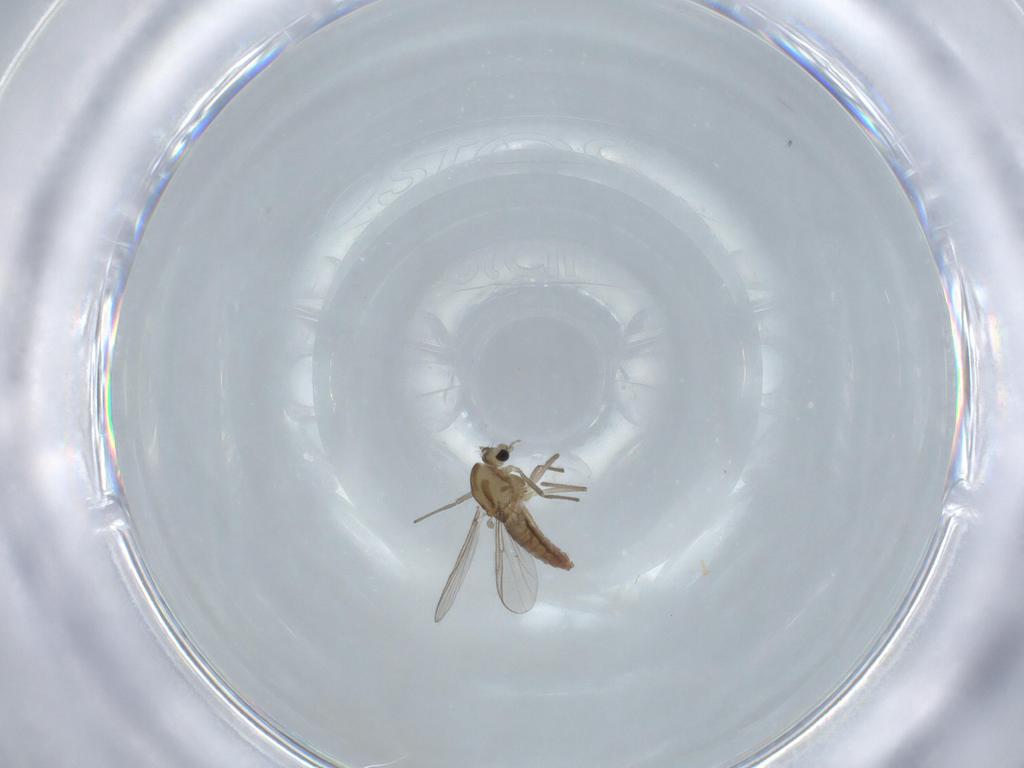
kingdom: Animalia
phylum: Arthropoda
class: Insecta
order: Diptera
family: Chironomidae
